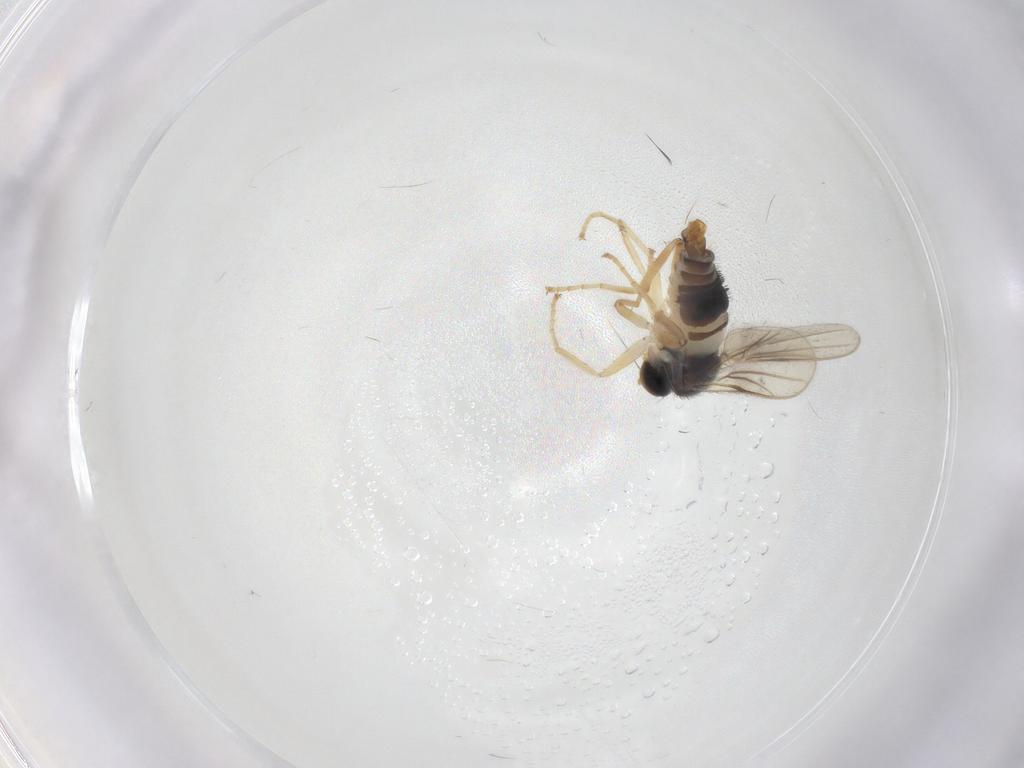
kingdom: Animalia
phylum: Arthropoda
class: Insecta
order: Diptera
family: Hybotidae
